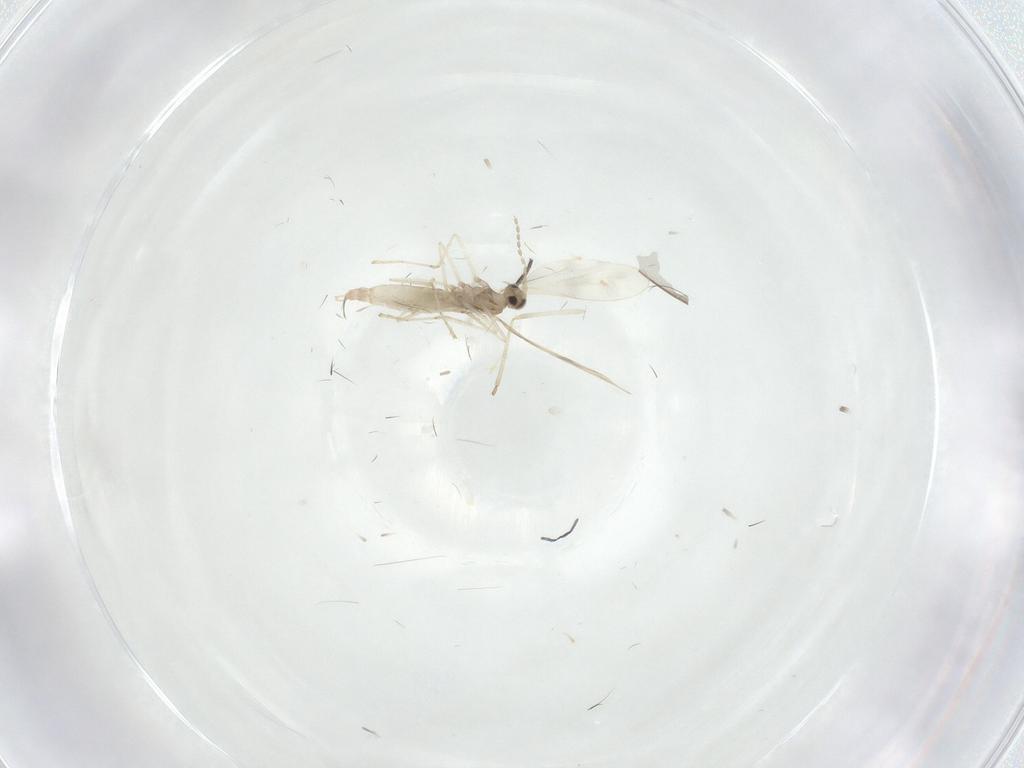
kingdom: Animalia
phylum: Arthropoda
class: Insecta
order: Diptera
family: Cecidomyiidae
